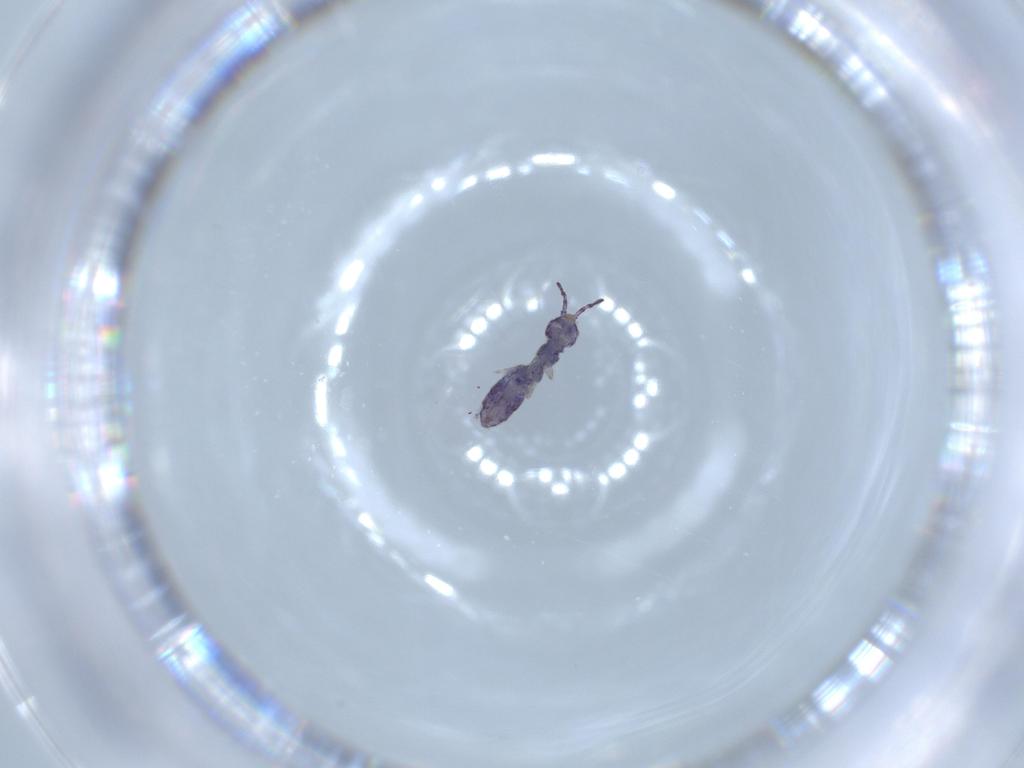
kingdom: Animalia
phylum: Arthropoda
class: Collembola
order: Entomobryomorpha
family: Isotomidae
